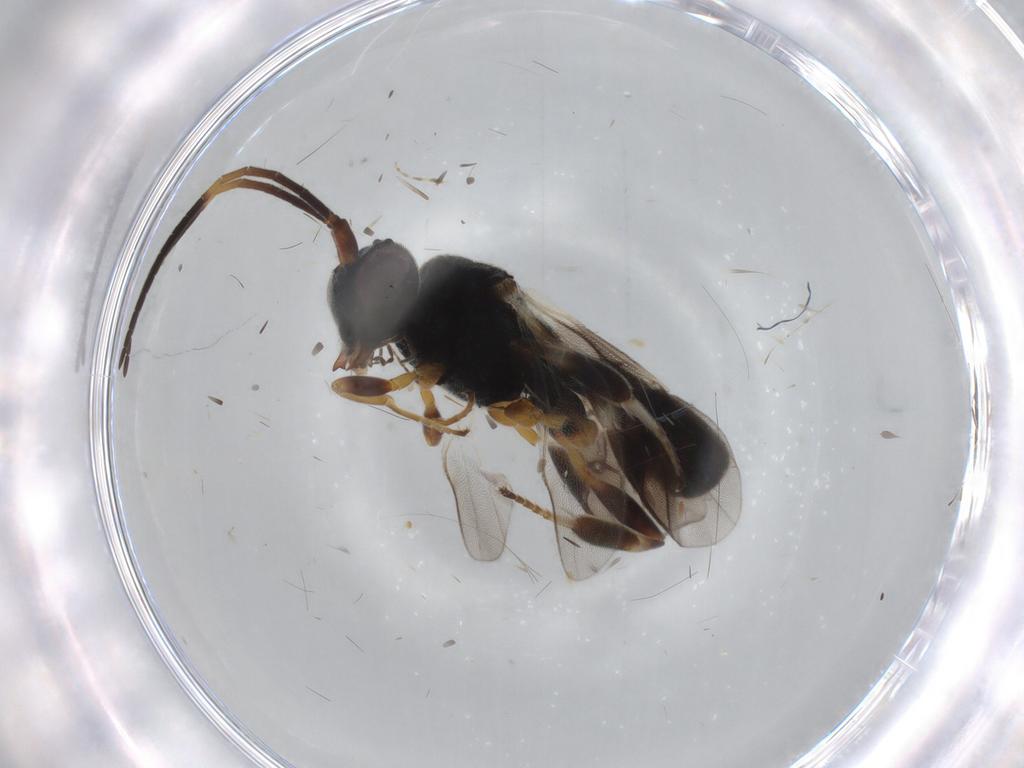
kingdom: Animalia
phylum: Arthropoda
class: Insecta
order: Hymenoptera
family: Braconidae
